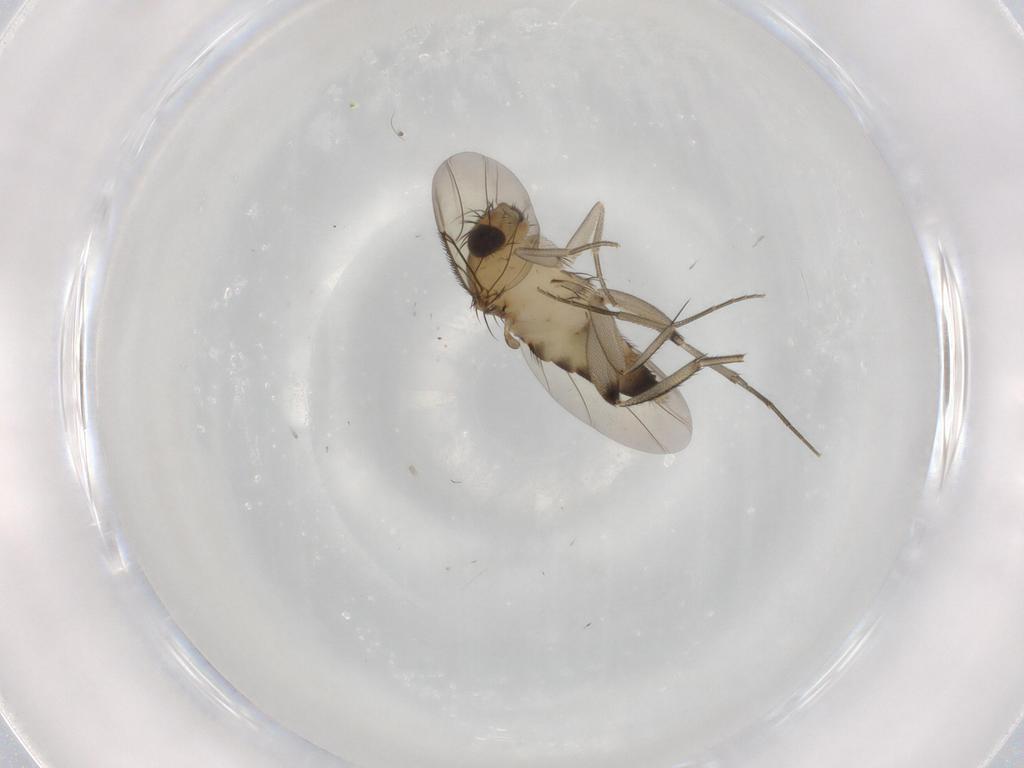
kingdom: Animalia
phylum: Arthropoda
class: Insecta
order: Diptera
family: Phoridae
